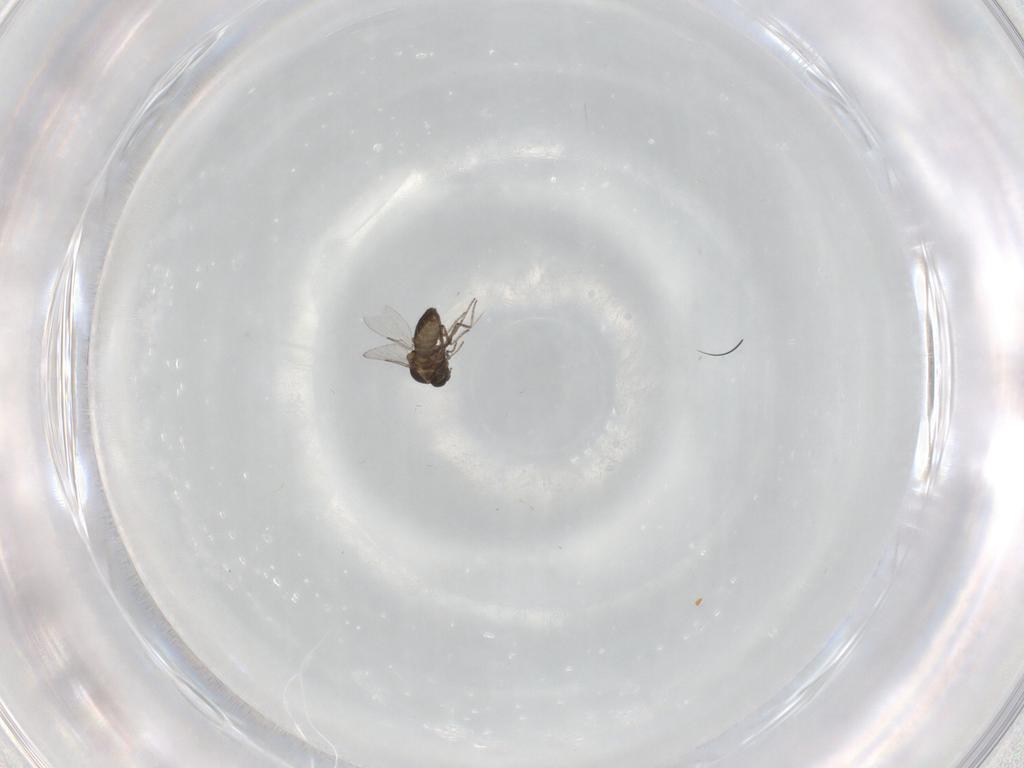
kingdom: Animalia
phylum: Arthropoda
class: Insecta
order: Diptera
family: Ceratopogonidae
